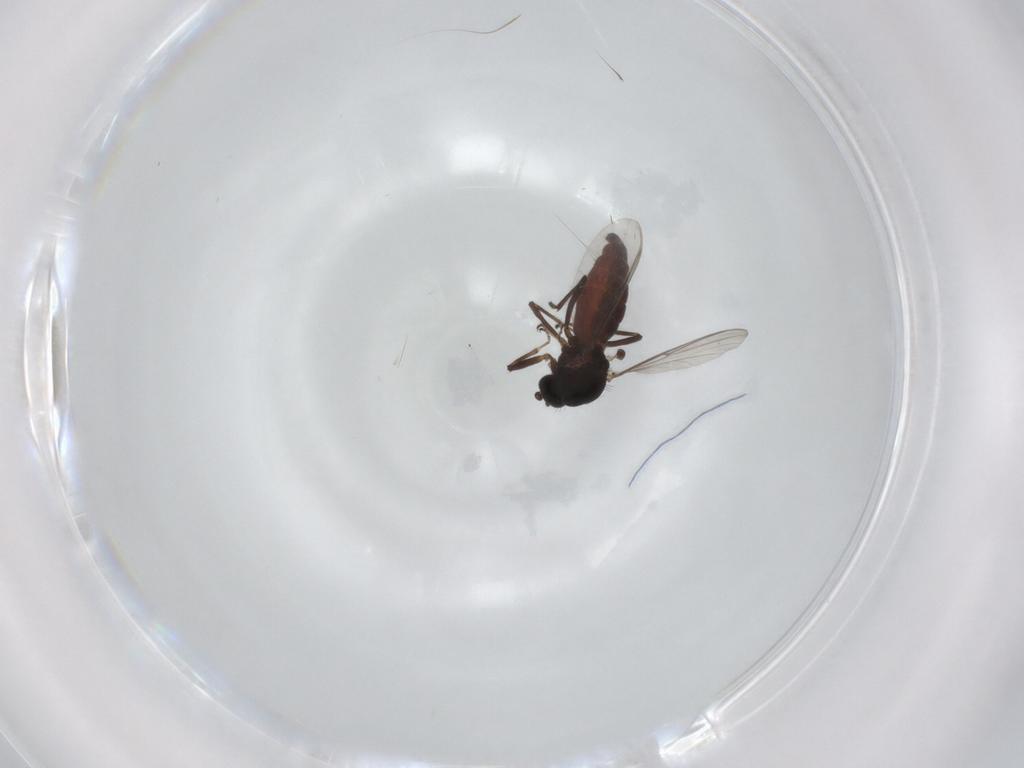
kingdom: Animalia
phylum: Arthropoda
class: Insecta
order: Diptera
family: Ceratopogonidae
